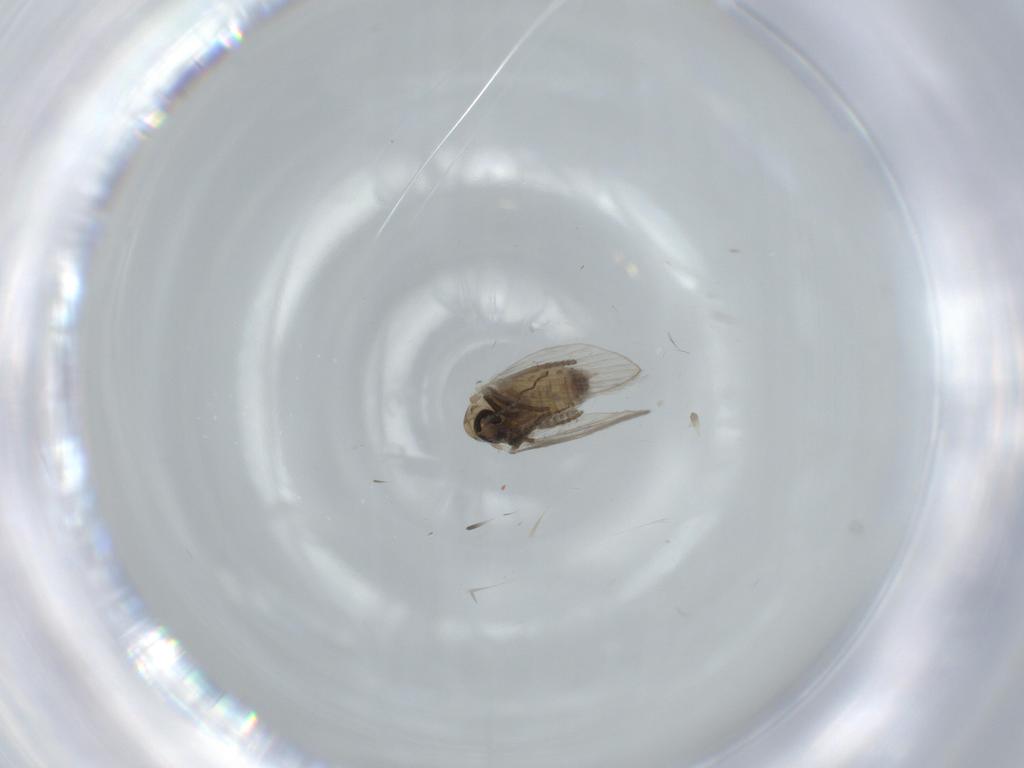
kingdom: Animalia
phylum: Arthropoda
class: Insecta
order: Diptera
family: Psychodidae
